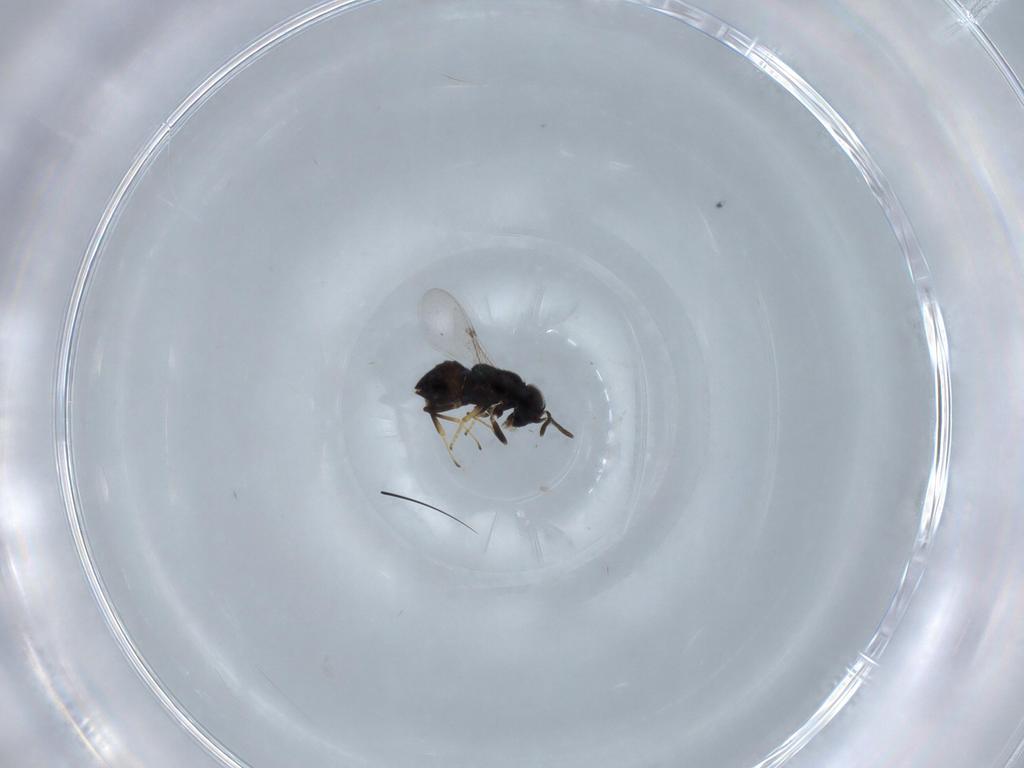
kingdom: Animalia
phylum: Arthropoda
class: Insecta
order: Hymenoptera
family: Encyrtidae
